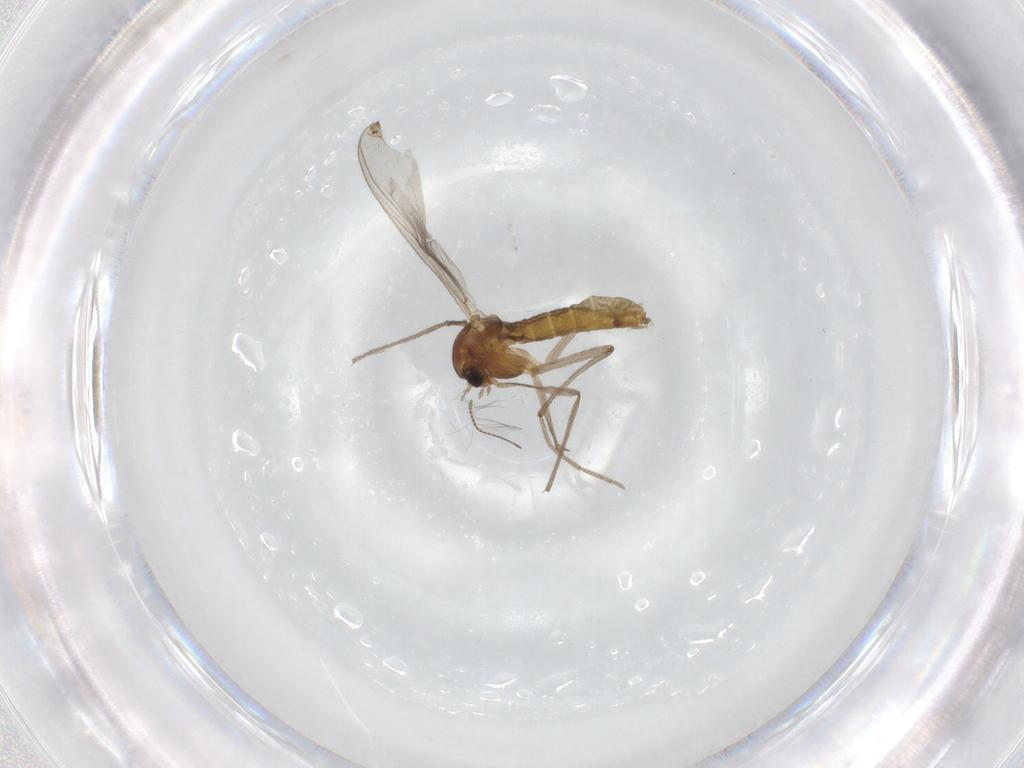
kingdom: Animalia
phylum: Arthropoda
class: Insecta
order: Diptera
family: Chironomidae
